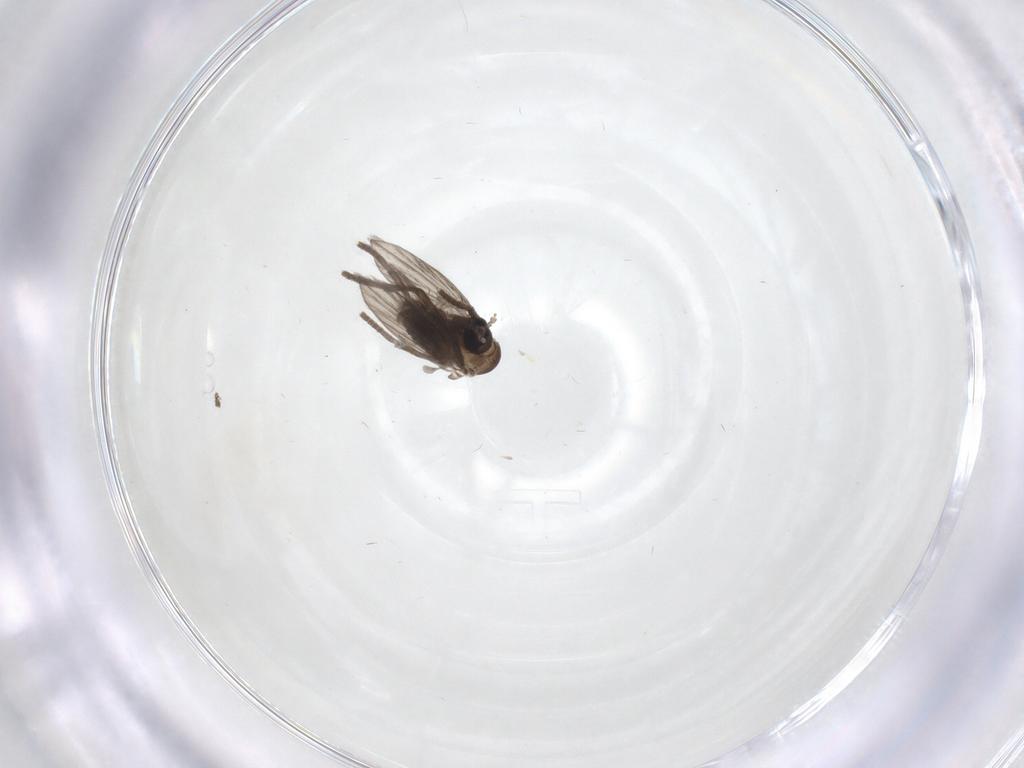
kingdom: Animalia
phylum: Arthropoda
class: Insecta
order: Diptera
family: Psychodidae
